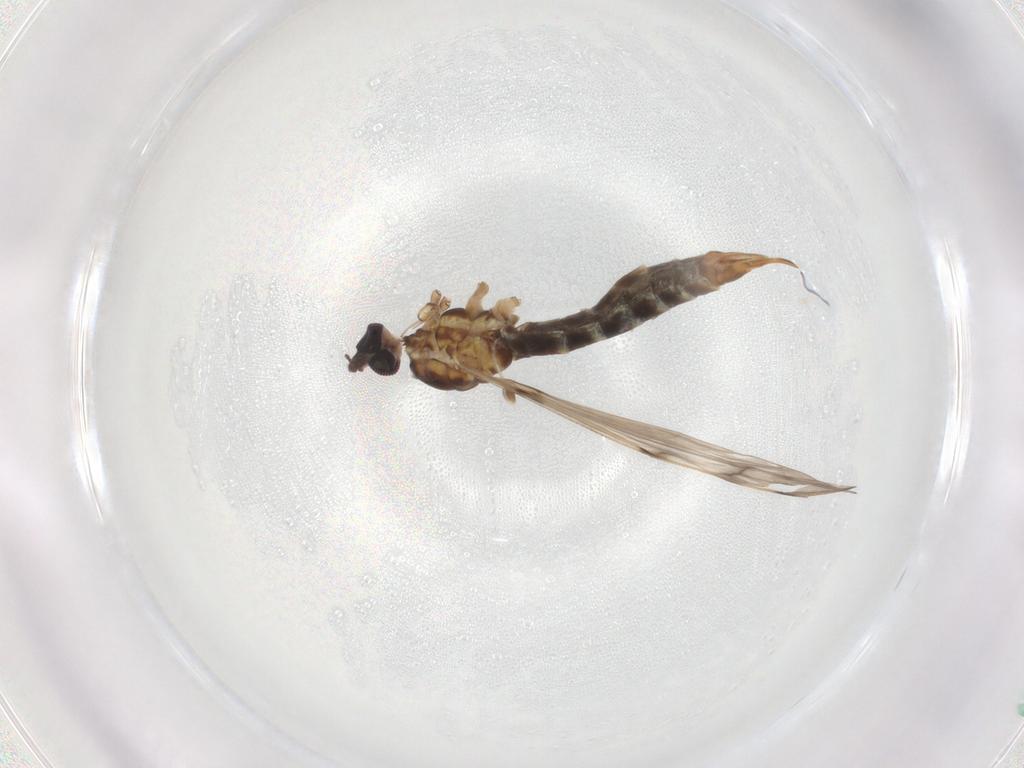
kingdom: Animalia
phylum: Arthropoda
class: Insecta
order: Diptera
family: Limoniidae
